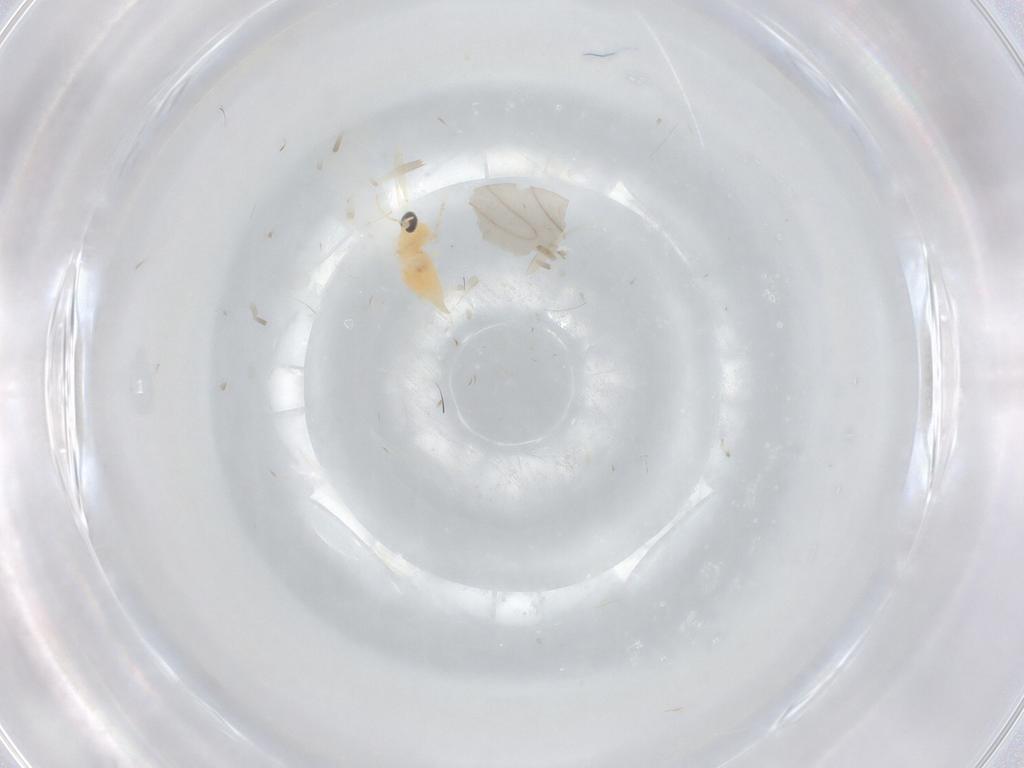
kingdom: Animalia
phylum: Arthropoda
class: Insecta
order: Diptera
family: Cecidomyiidae
